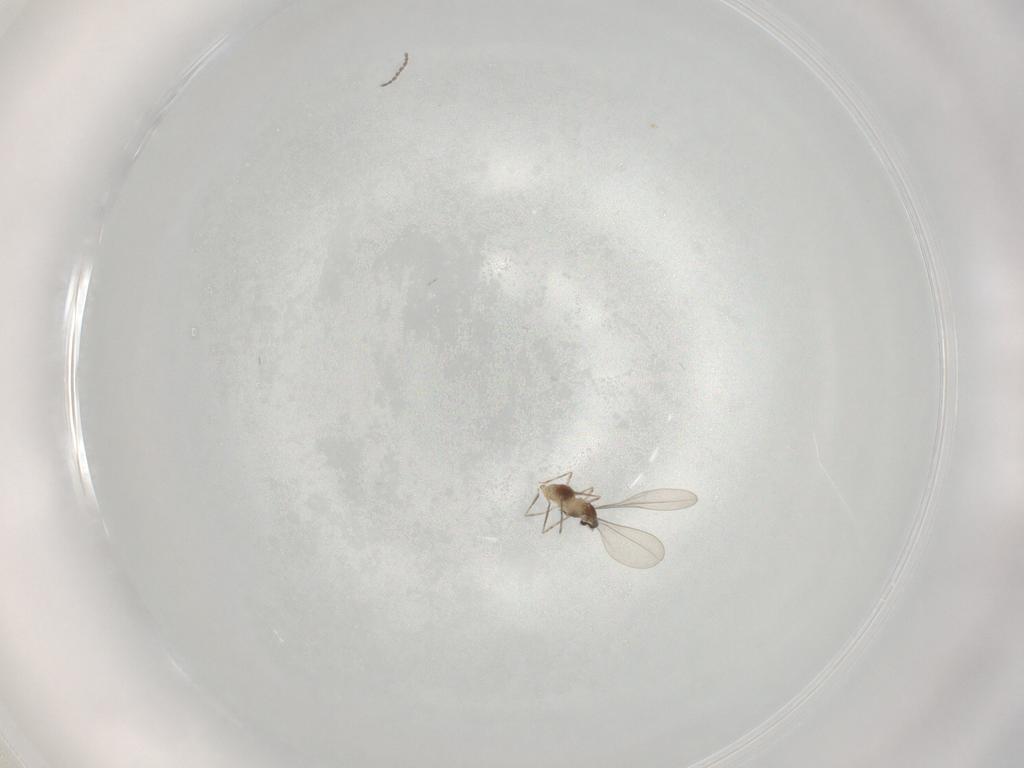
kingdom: Animalia
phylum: Arthropoda
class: Insecta
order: Diptera
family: Cecidomyiidae
